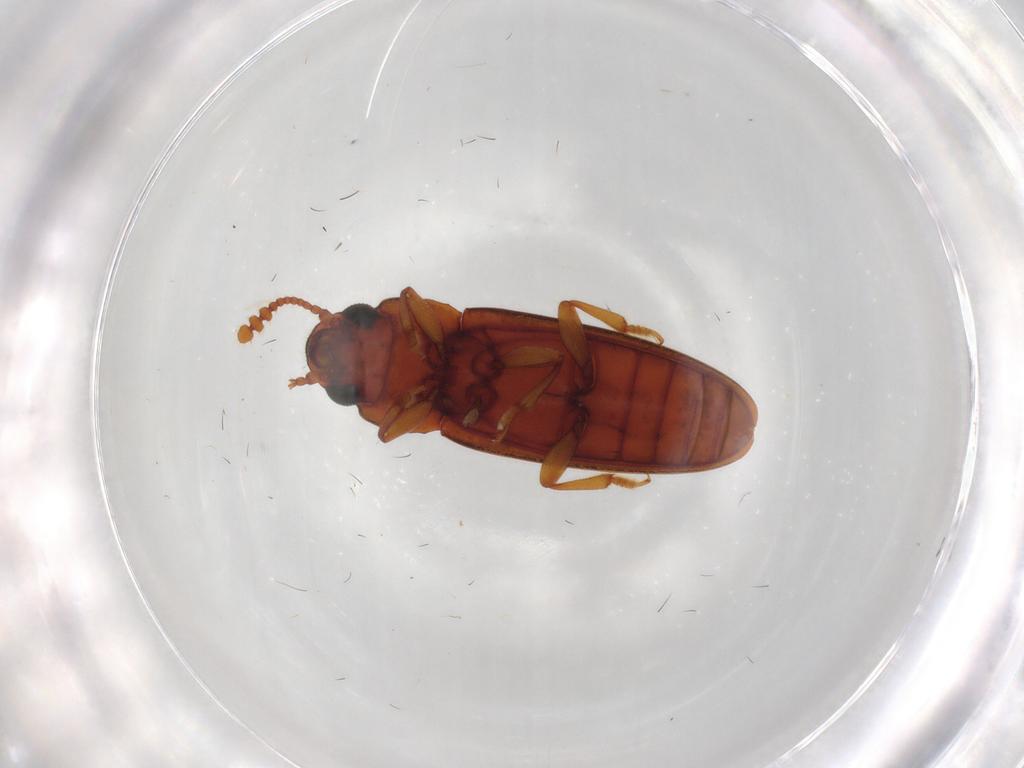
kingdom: Animalia
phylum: Arthropoda
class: Insecta
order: Coleoptera
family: Erotylidae
